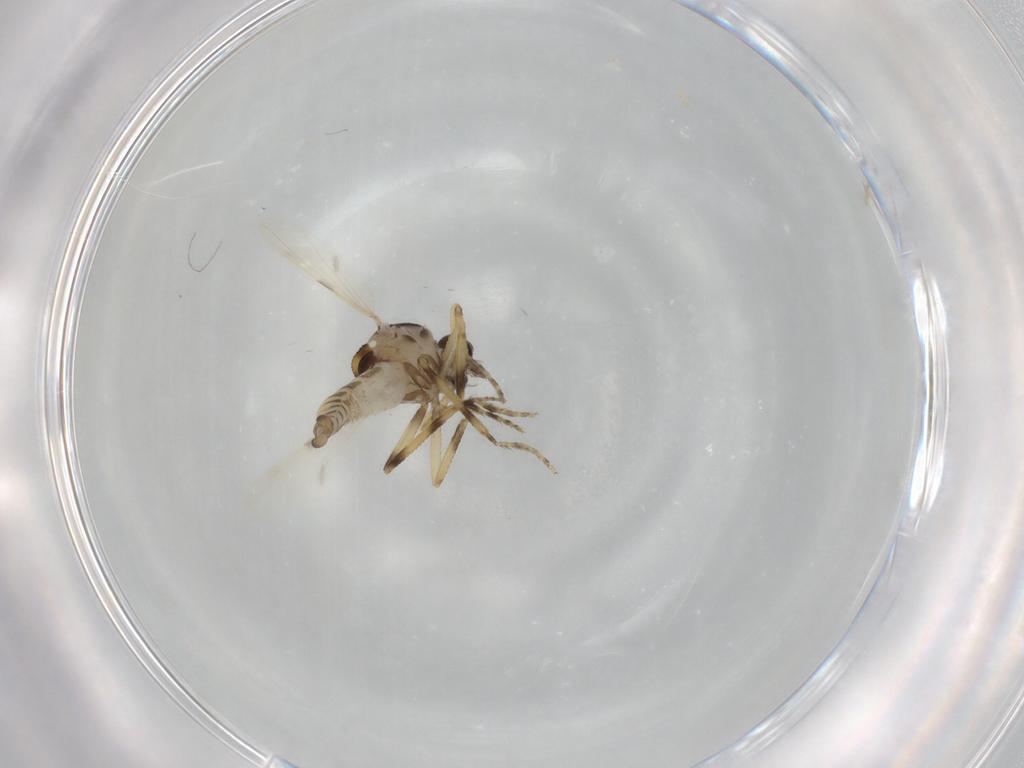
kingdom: Animalia
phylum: Arthropoda
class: Insecta
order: Diptera
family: Ceratopogonidae
